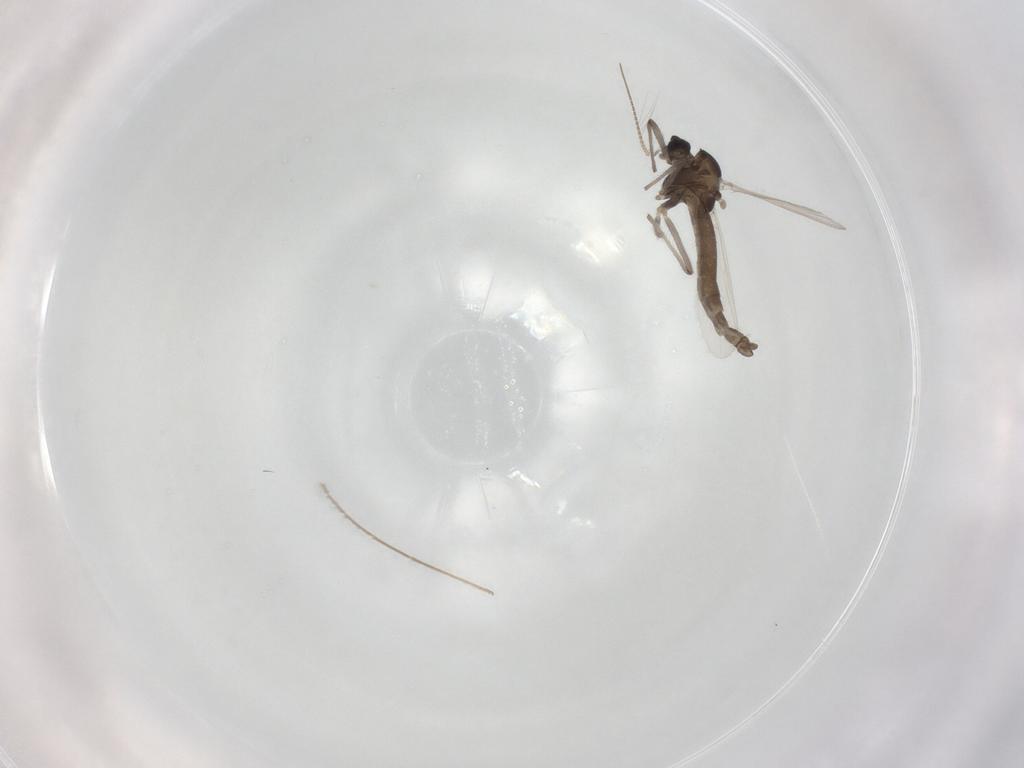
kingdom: Animalia
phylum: Arthropoda
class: Insecta
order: Diptera
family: Chironomidae
